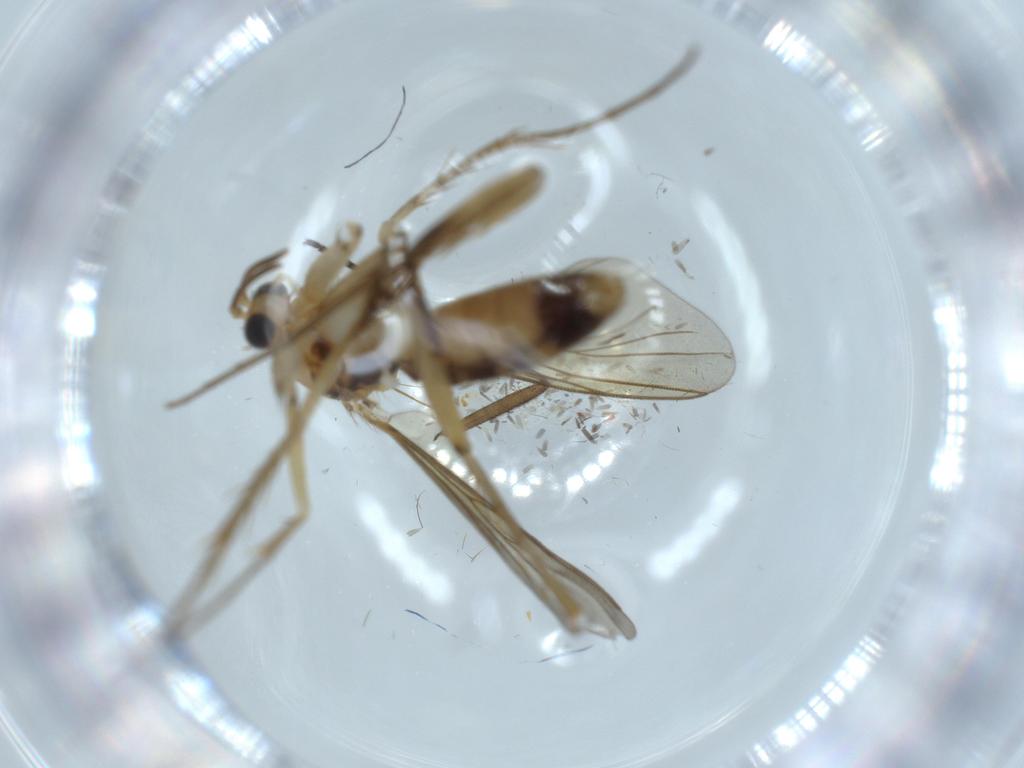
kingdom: Animalia
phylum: Arthropoda
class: Insecta
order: Diptera
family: Mycetophilidae
